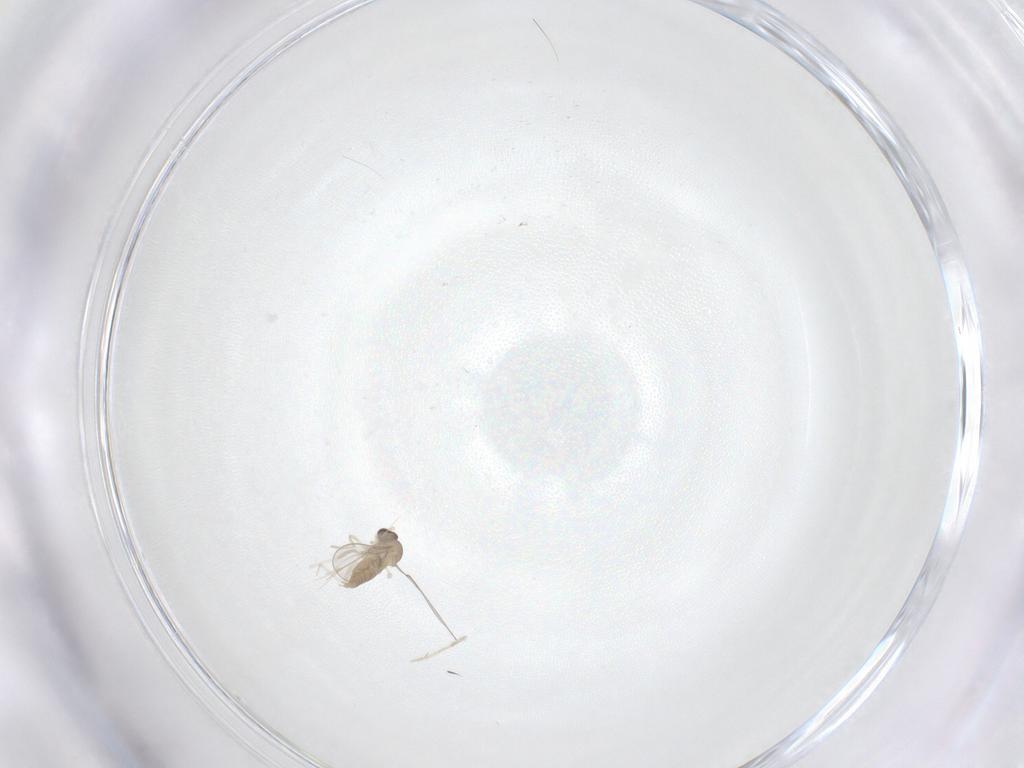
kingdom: Animalia
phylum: Arthropoda
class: Insecta
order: Diptera
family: Cecidomyiidae
